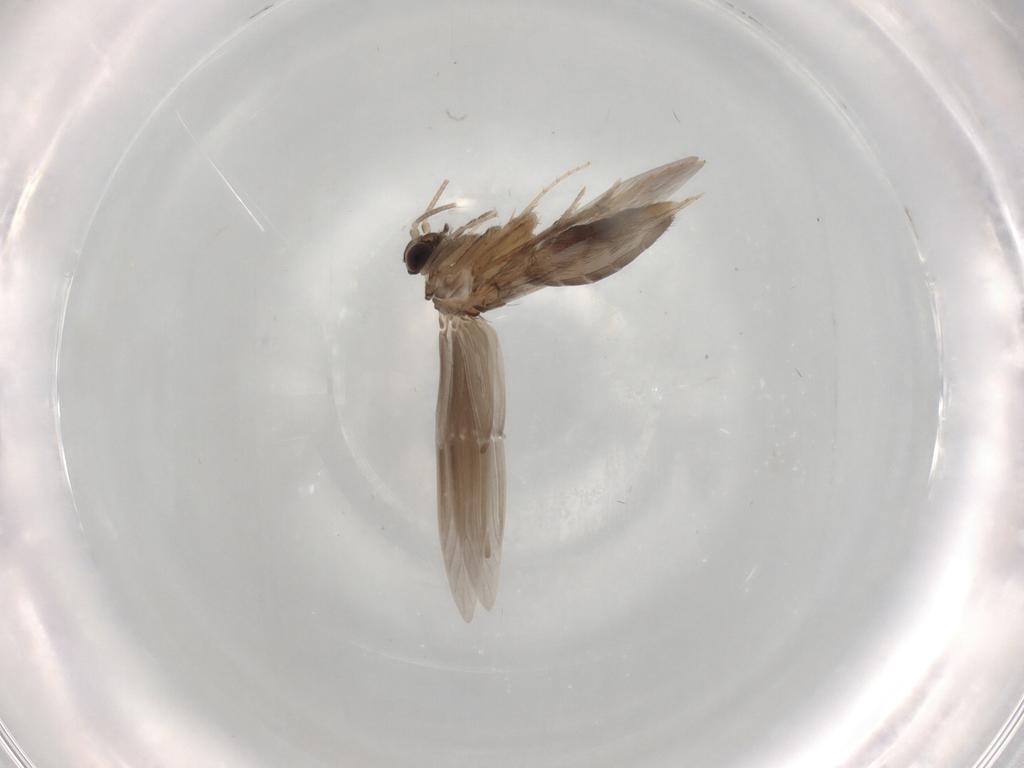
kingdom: Animalia
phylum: Arthropoda
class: Insecta
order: Trichoptera
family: Hydroptilidae
